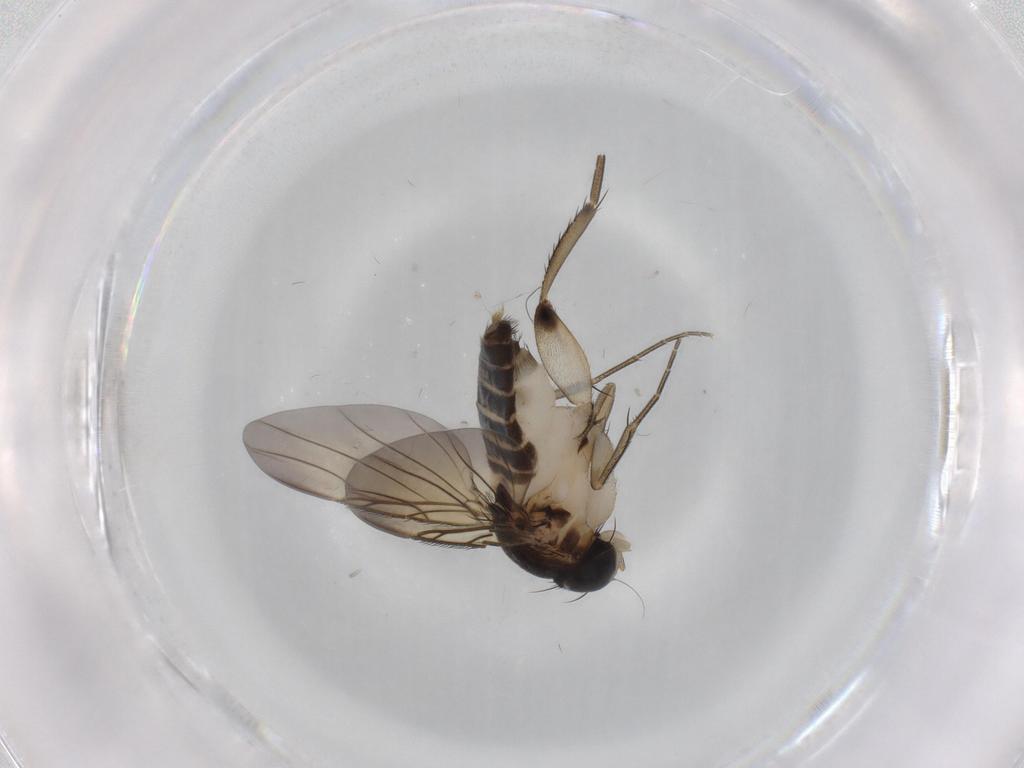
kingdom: Animalia
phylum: Arthropoda
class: Insecta
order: Diptera
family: Phoridae
